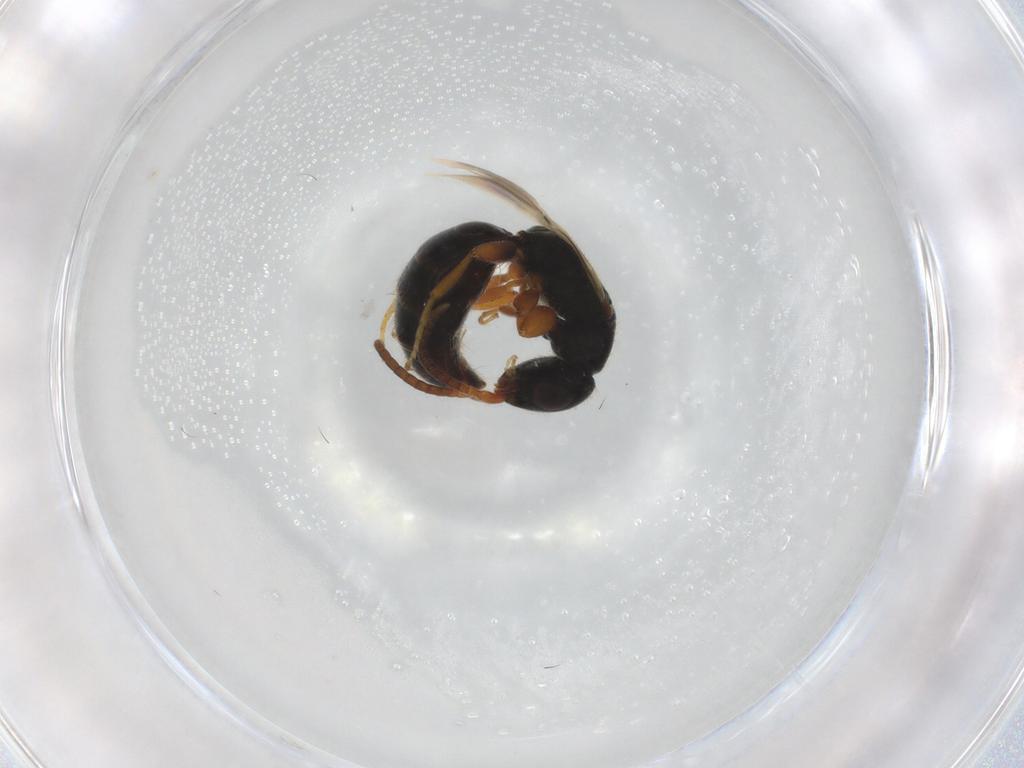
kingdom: Animalia
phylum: Arthropoda
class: Insecta
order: Hymenoptera
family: Bethylidae
